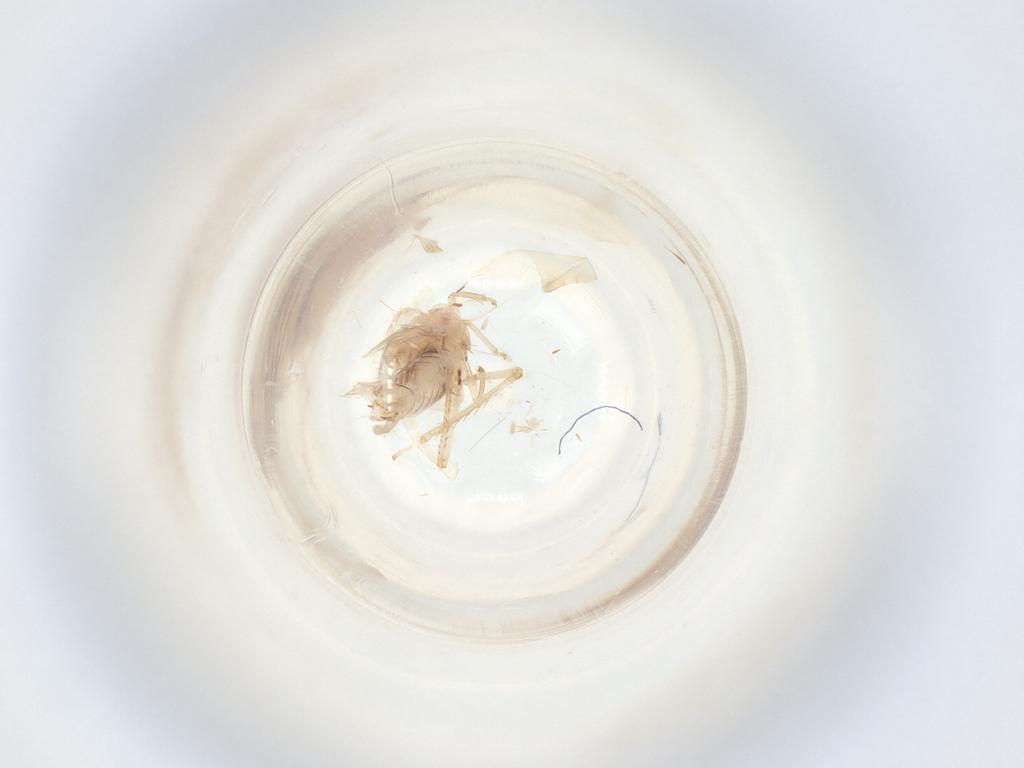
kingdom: Animalia
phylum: Arthropoda
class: Insecta
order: Hemiptera
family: Cicadellidae
